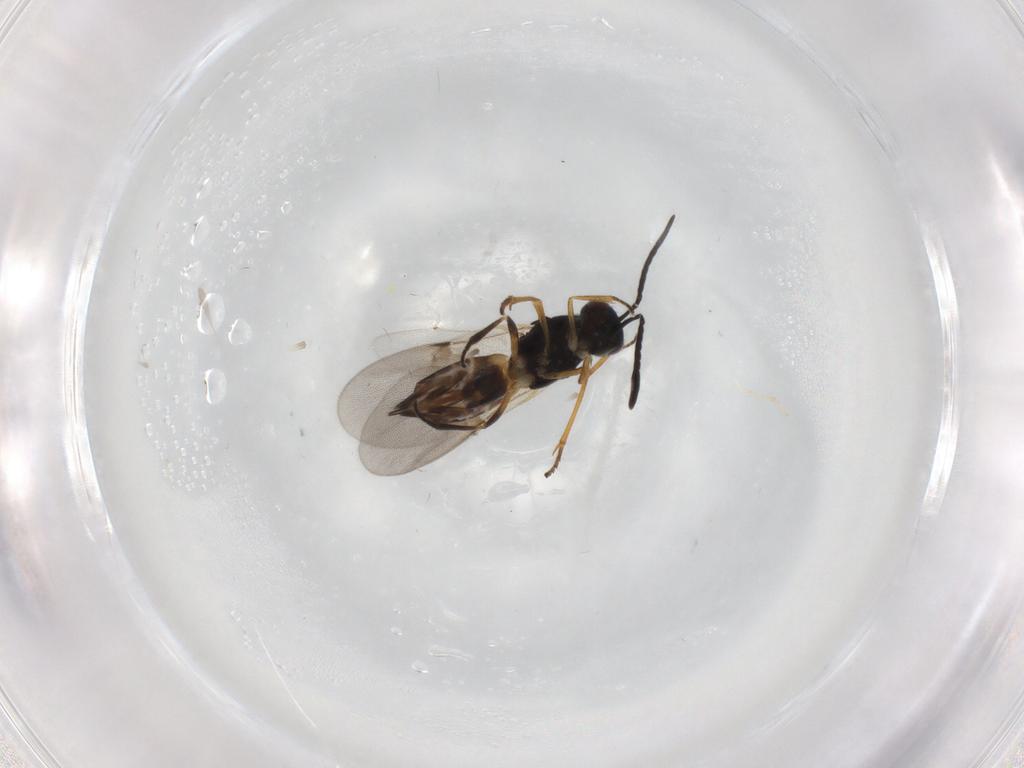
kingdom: Animalia
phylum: Arthropoda
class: Insecta
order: Hymenoptera
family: Encyrtidae
